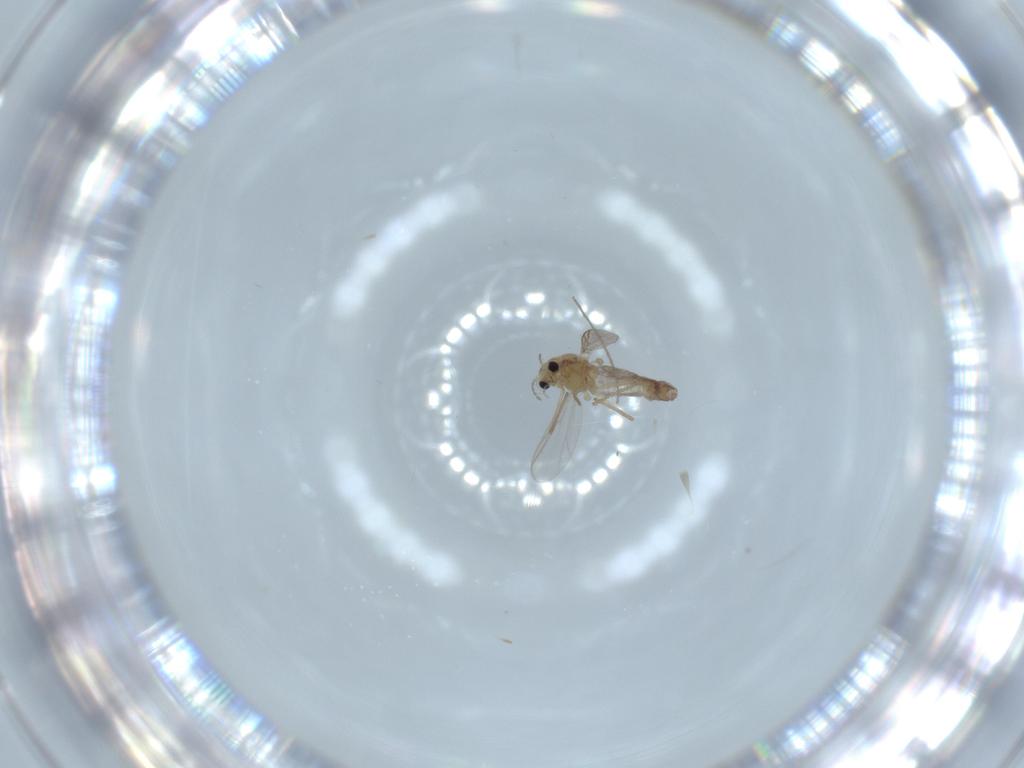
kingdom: Animalia
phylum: Arthropoda
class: Insecta
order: Diptera
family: Chironomidae
